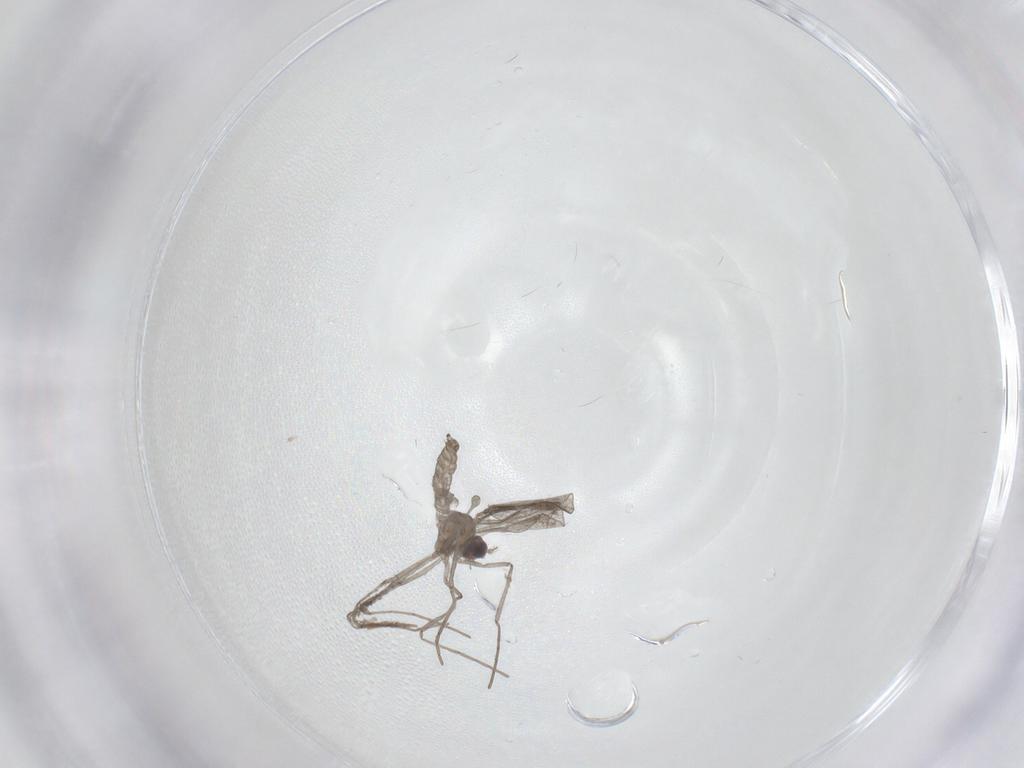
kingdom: Animalia
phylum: Arthropoda
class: Insecta
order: Diptera
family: Cecidomyiidae
